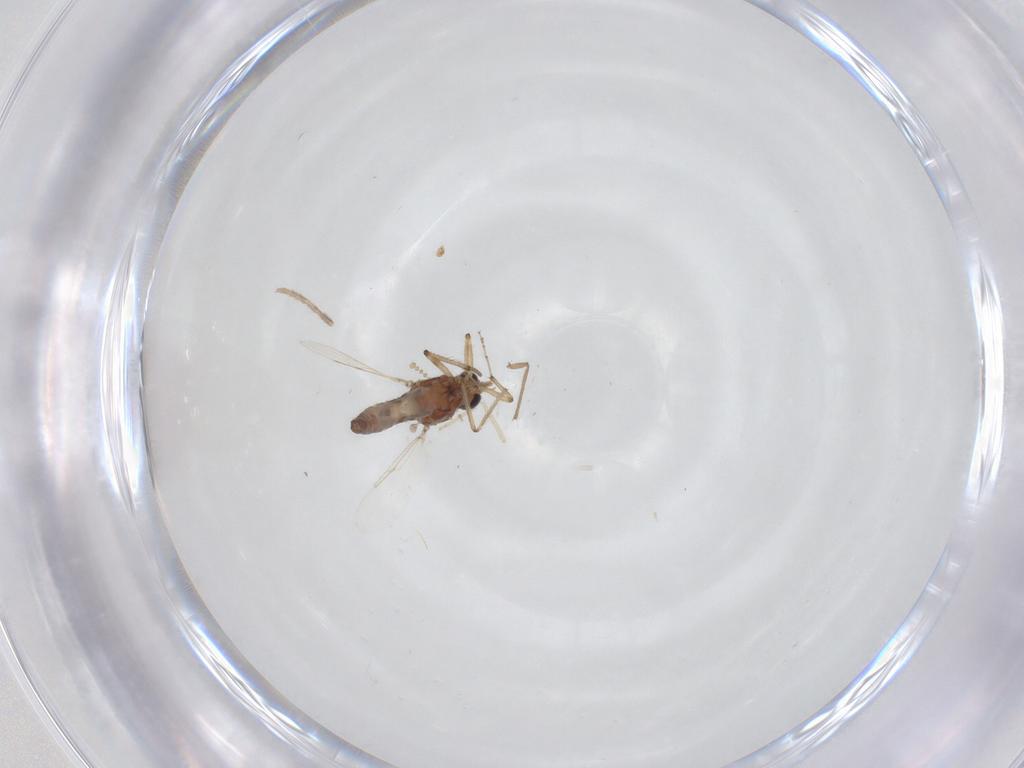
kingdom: Animalia
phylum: Arthropoda
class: Insecta
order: Diptera
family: Ceratopogonidae
